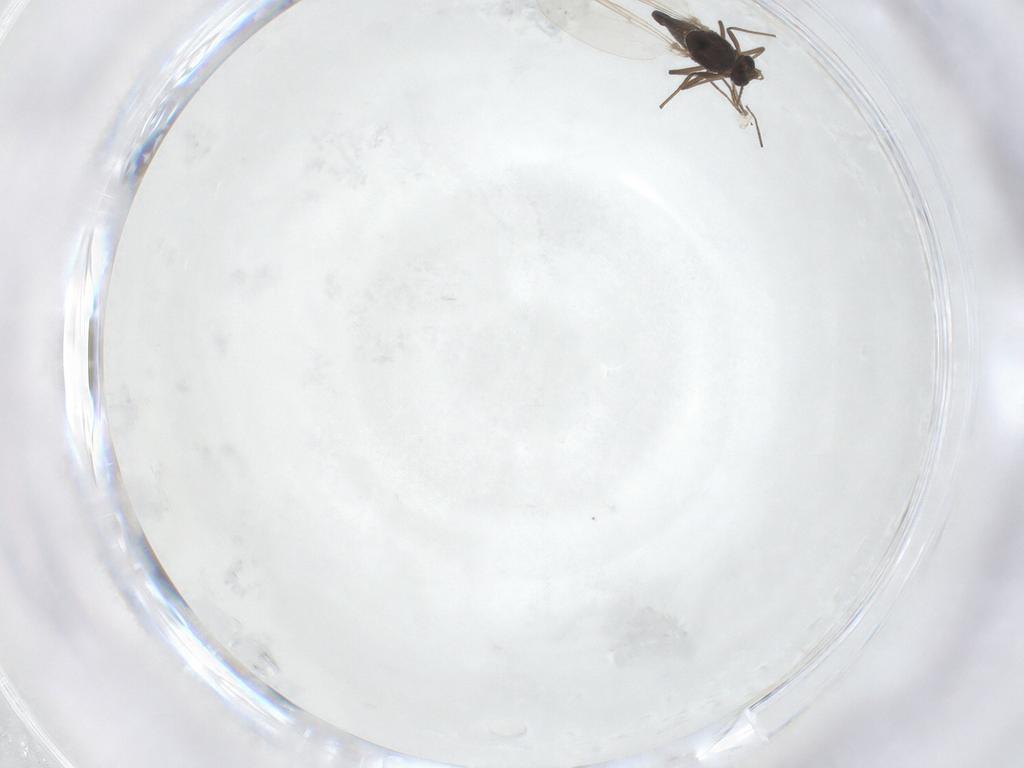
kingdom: Animalia
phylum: Arthropoda
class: Insecta
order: Diptera
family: Chironomidae
